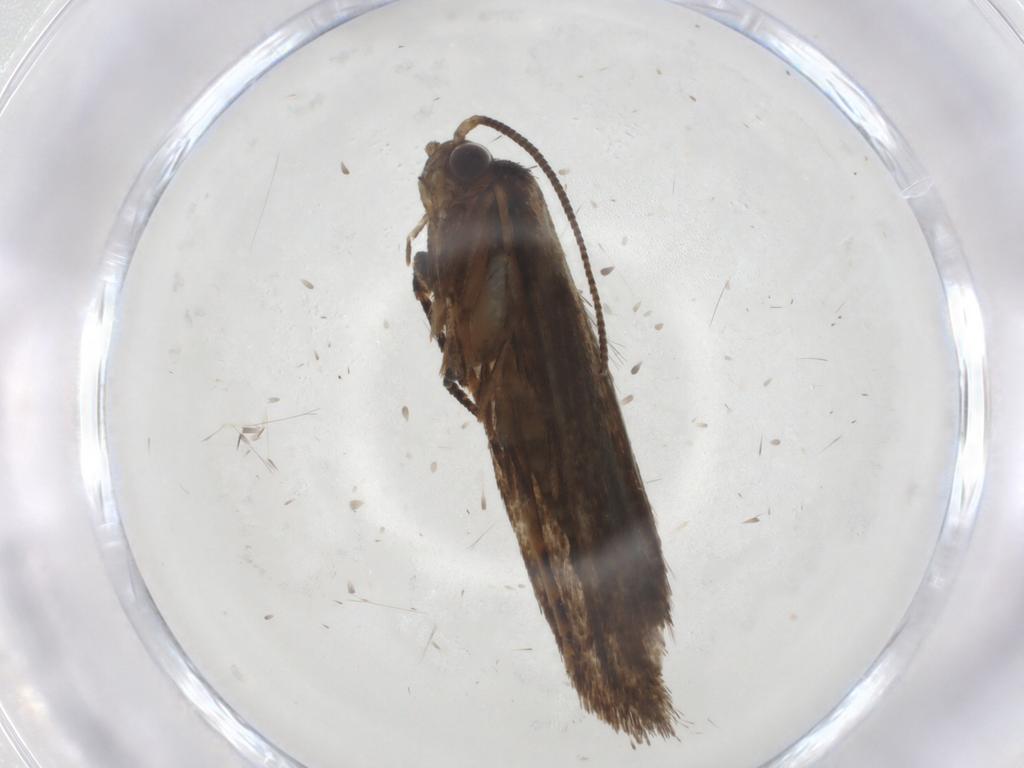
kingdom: Animalia
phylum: Arthropoda
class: Insecta
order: Lepidoptera
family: Crambidae
